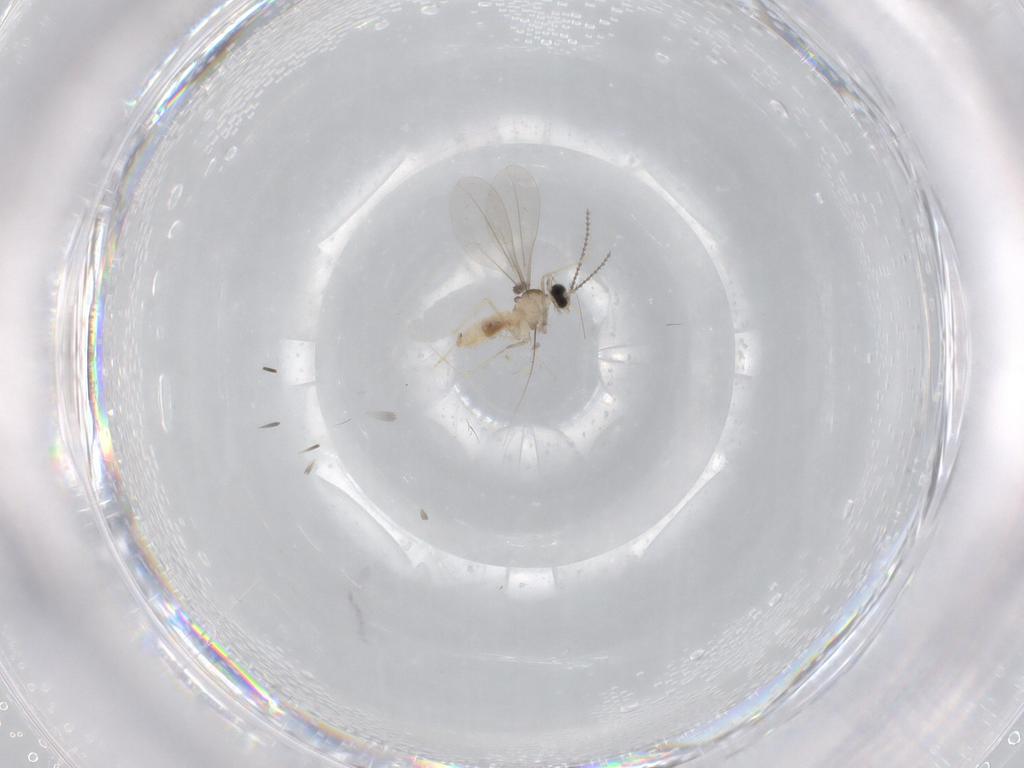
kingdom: Animalia
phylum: Arthropoda
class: Insecta
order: Diptera
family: Cecidomyiidae
